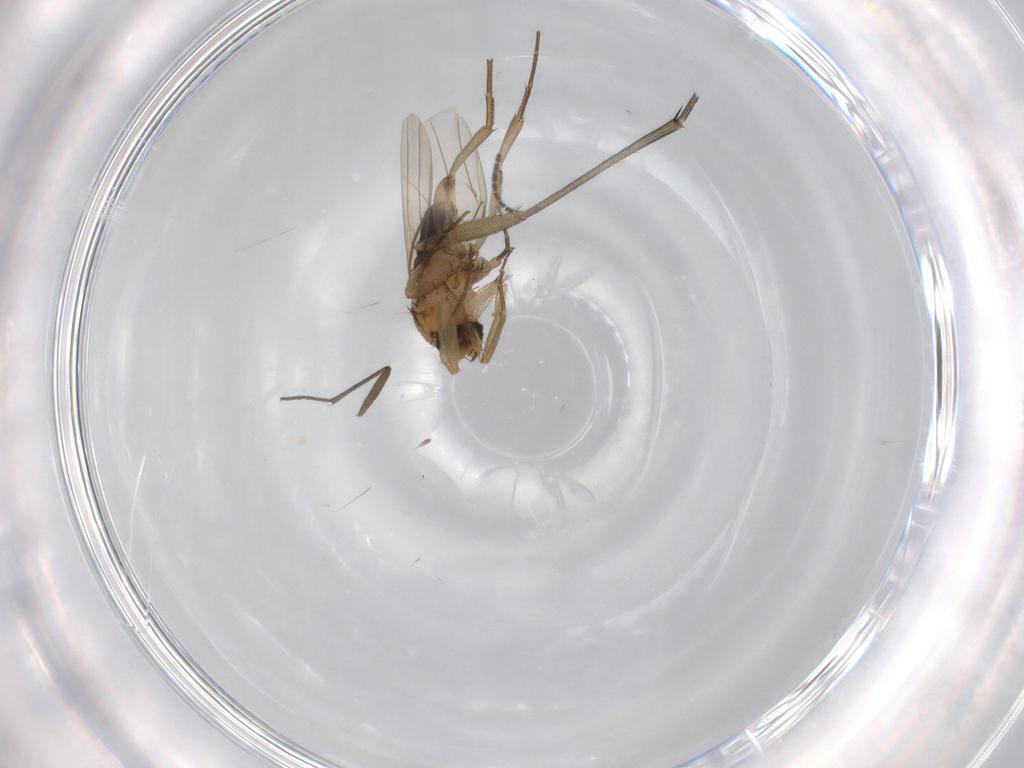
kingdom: Animalia
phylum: Arthropoda
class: Insecta
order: Diptera
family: Phoridae
